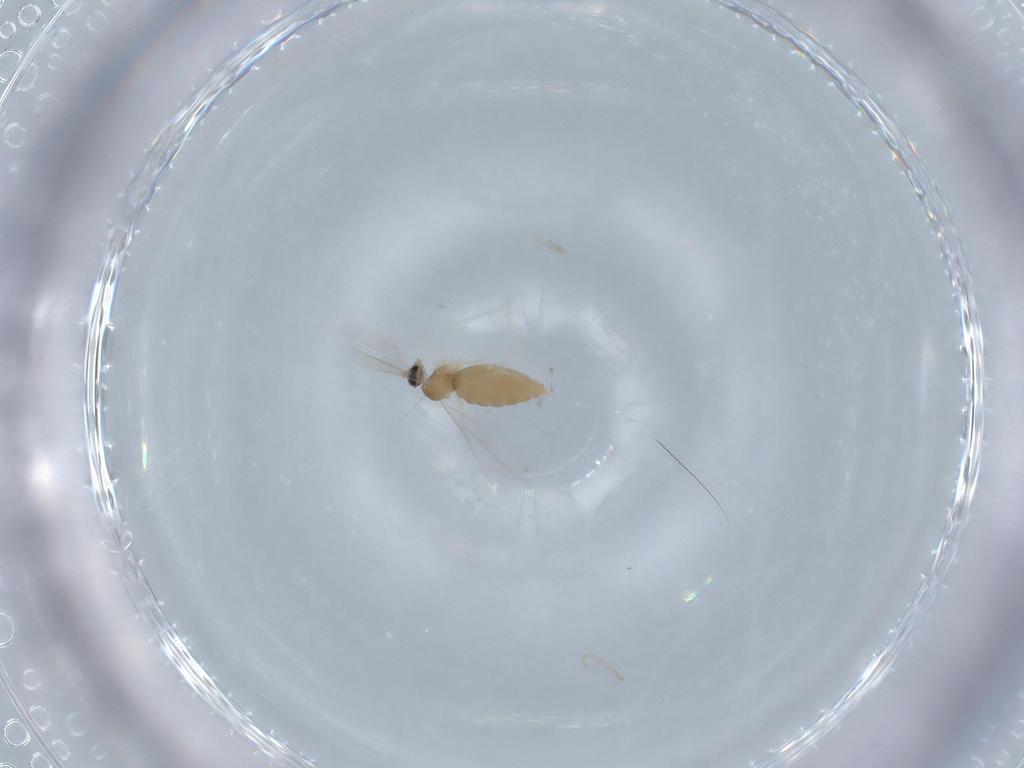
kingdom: Animalia
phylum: Arthropoda
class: Insecta
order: Diptera
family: Cecidomyiidae
